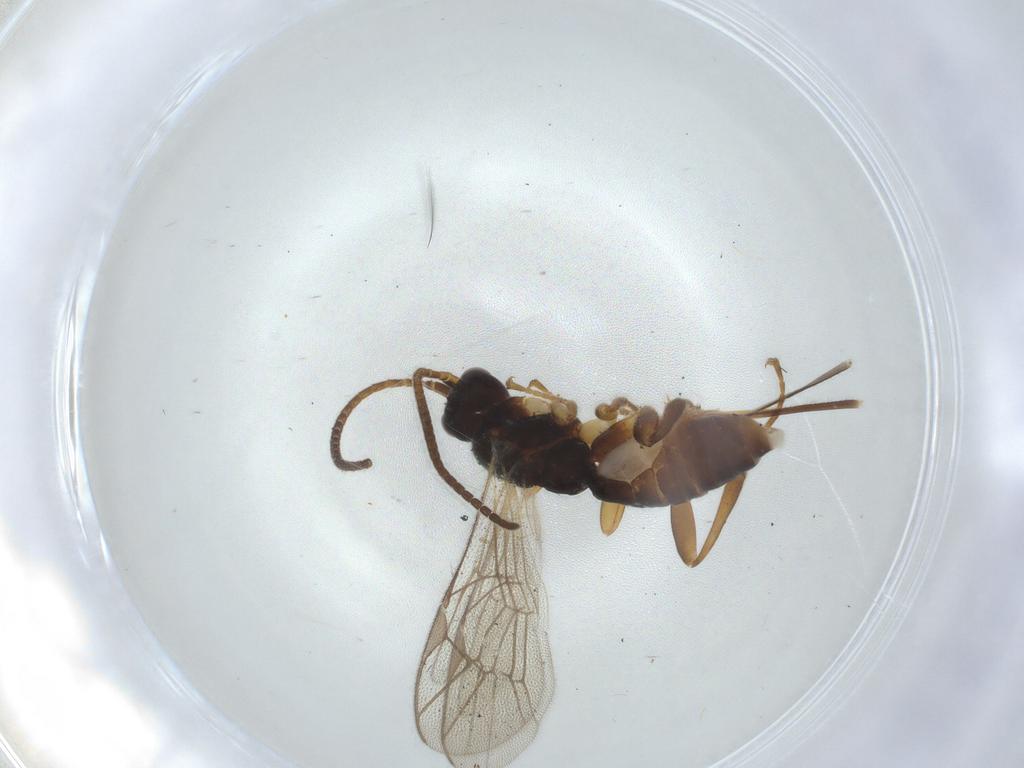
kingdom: Animalia
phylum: Arthropoda
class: Insecta
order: Hymenoptera
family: Ichneumonidae
